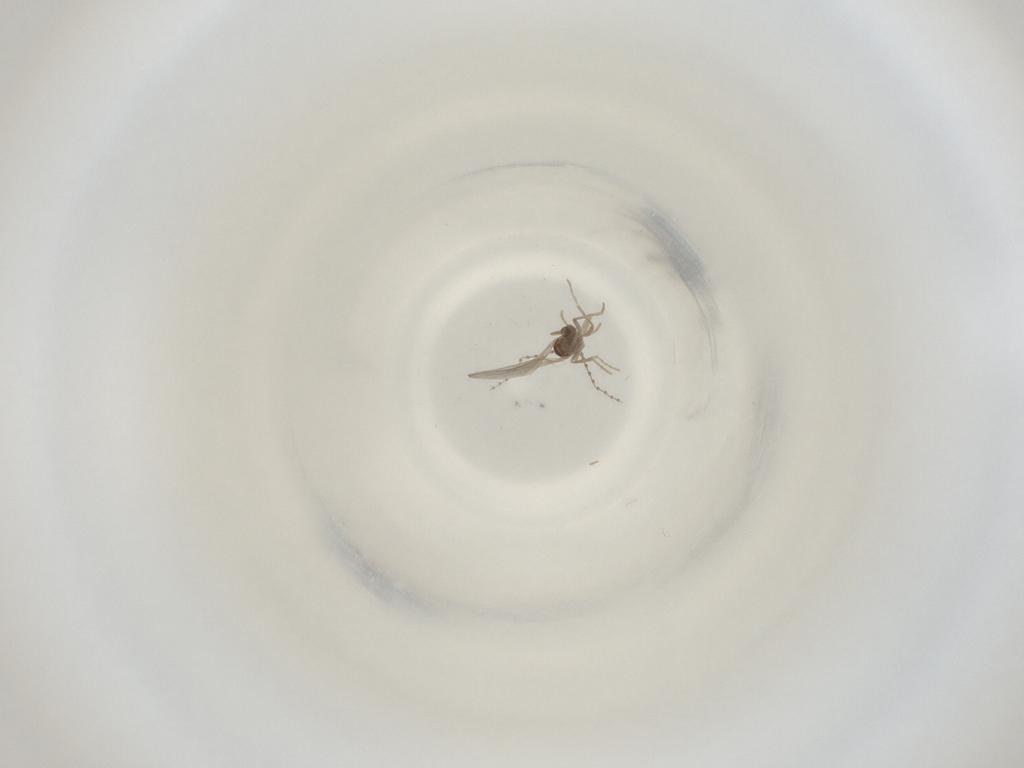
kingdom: Animalia
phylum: Arthropoda
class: Insecta
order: Diptera
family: Cecidomyiidae
